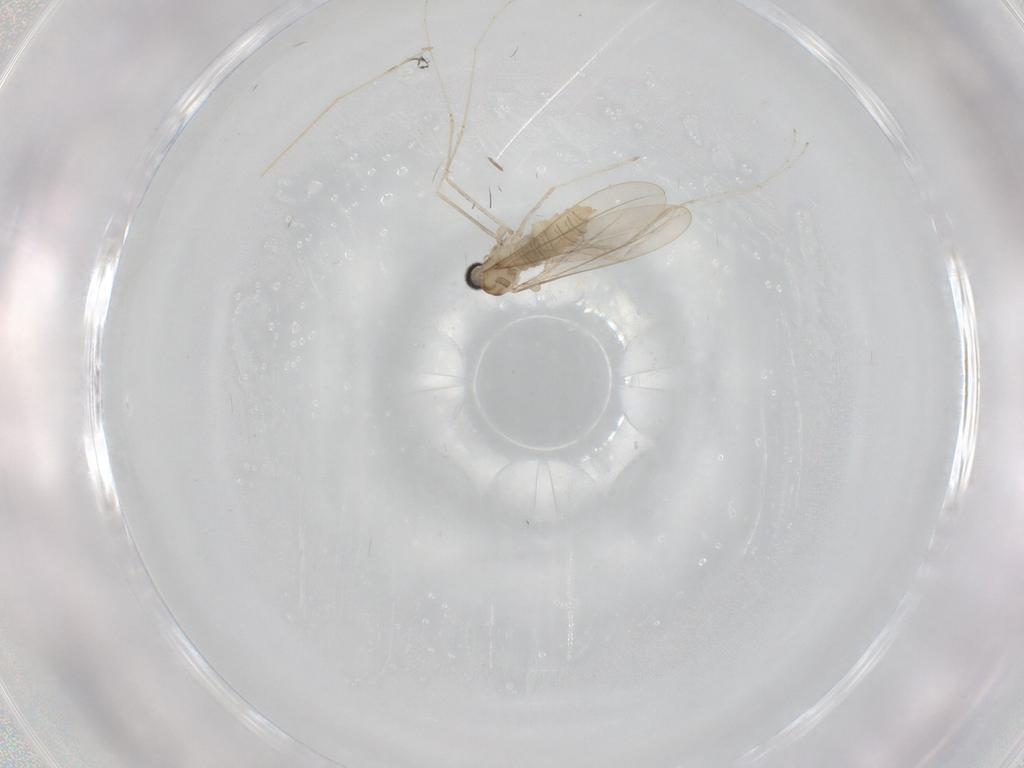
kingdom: Animalia
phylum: Arthropoda
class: Insecta
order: Diptera
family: Cecidomyiidae
